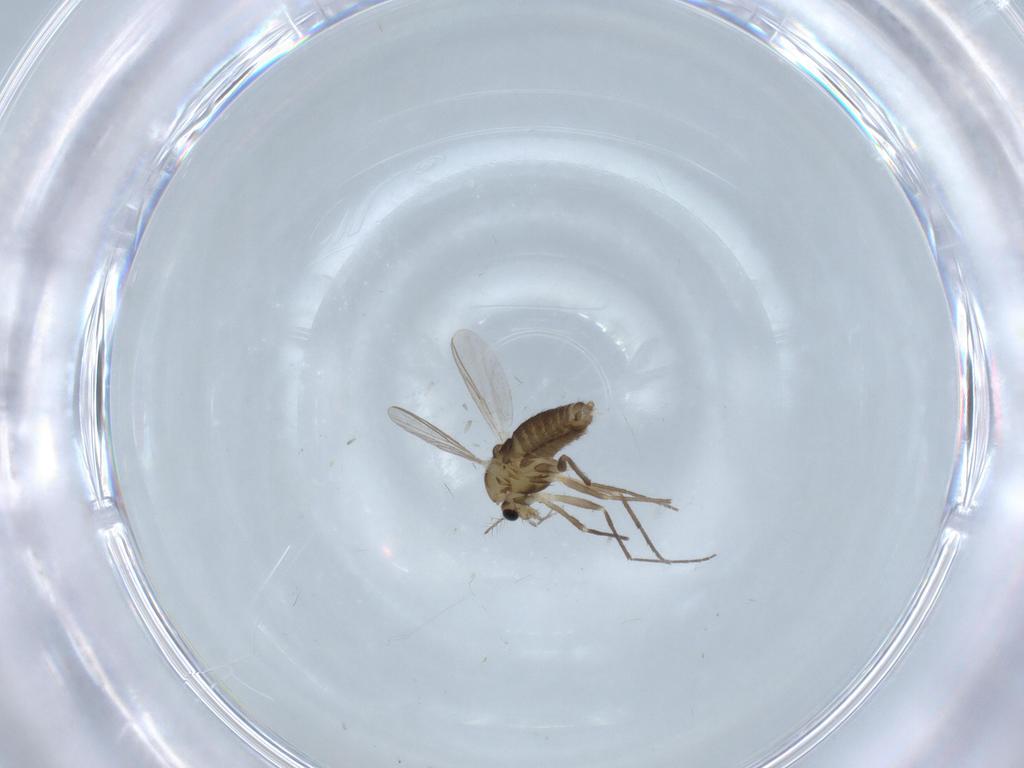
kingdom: Animalia
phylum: Arthropoda
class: Insecta
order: Diptera
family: Chironomidae
